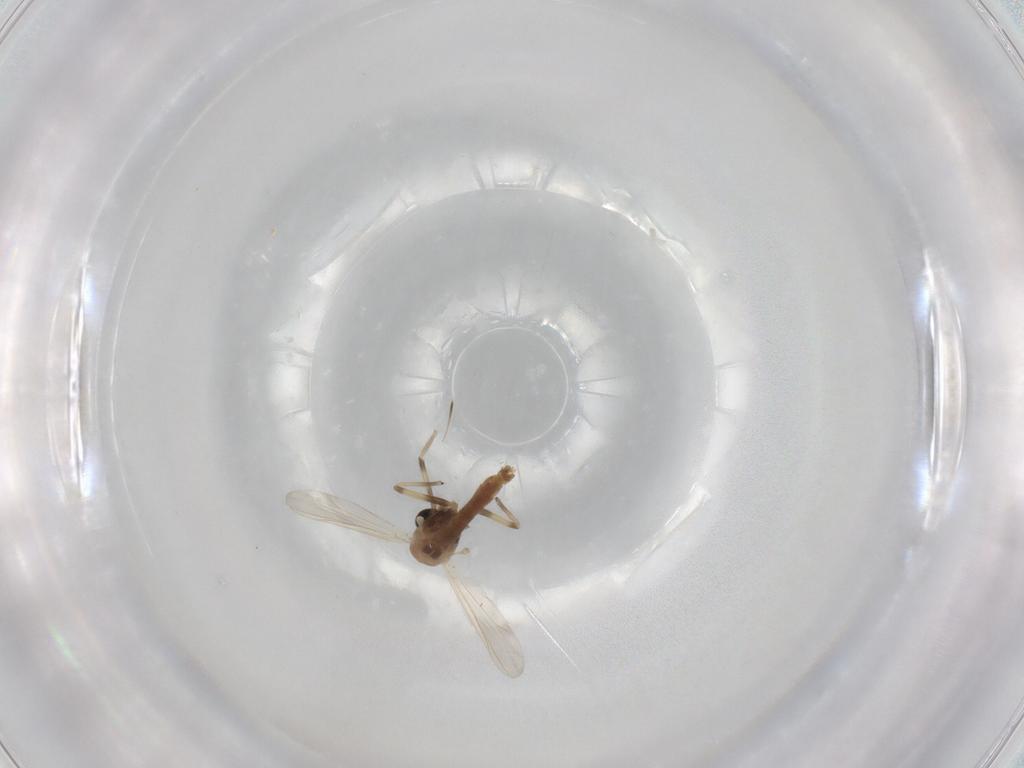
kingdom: Animalia
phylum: Arthropoda
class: Insecta
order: Diptera
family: Chironomidae
